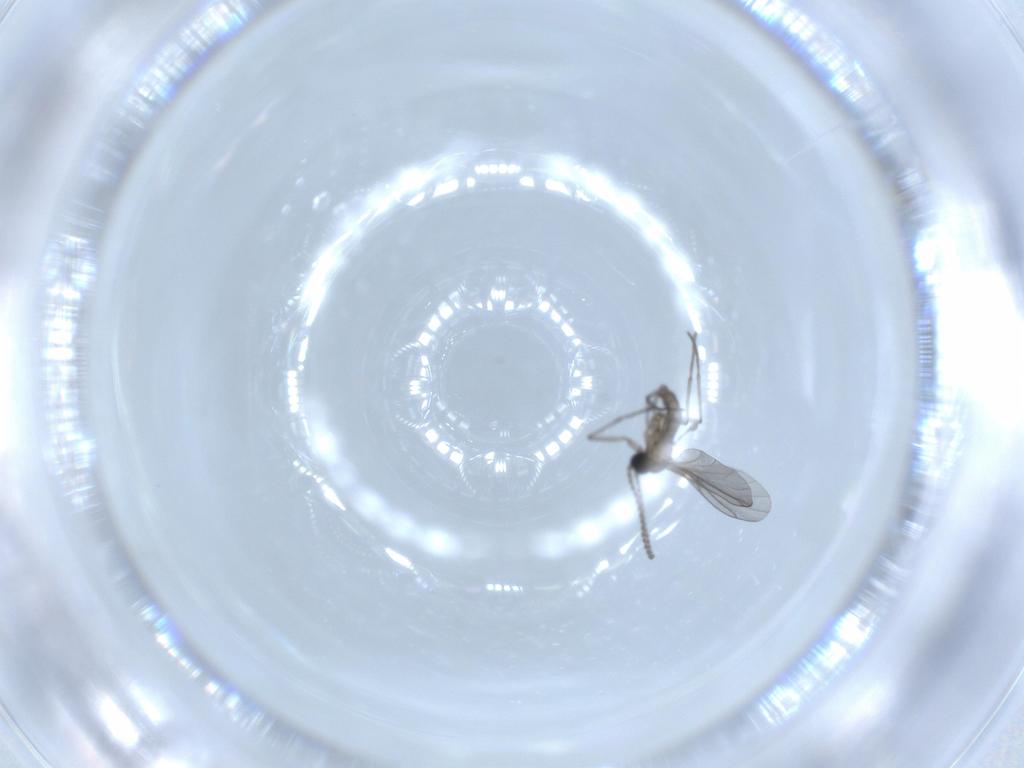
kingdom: Animalia
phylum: Arthropoda
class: Insecta
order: Diptera
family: Sciaridae
